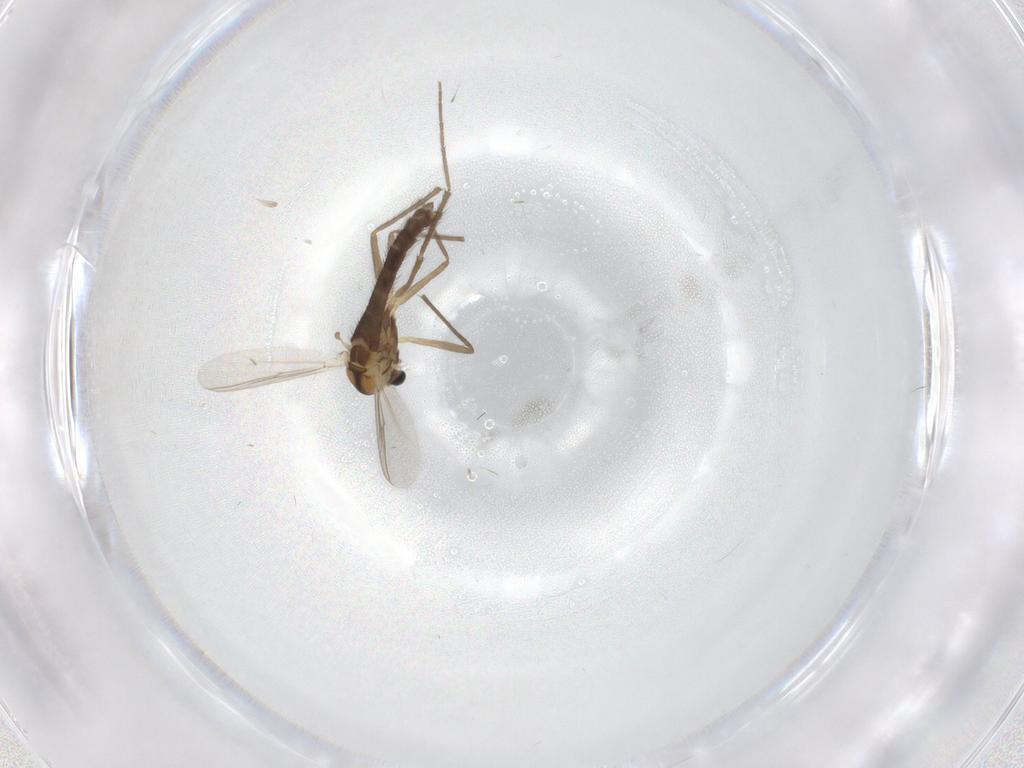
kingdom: Animalia
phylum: Arthropoda
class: Insecta
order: Diptera
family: Chironomidae
